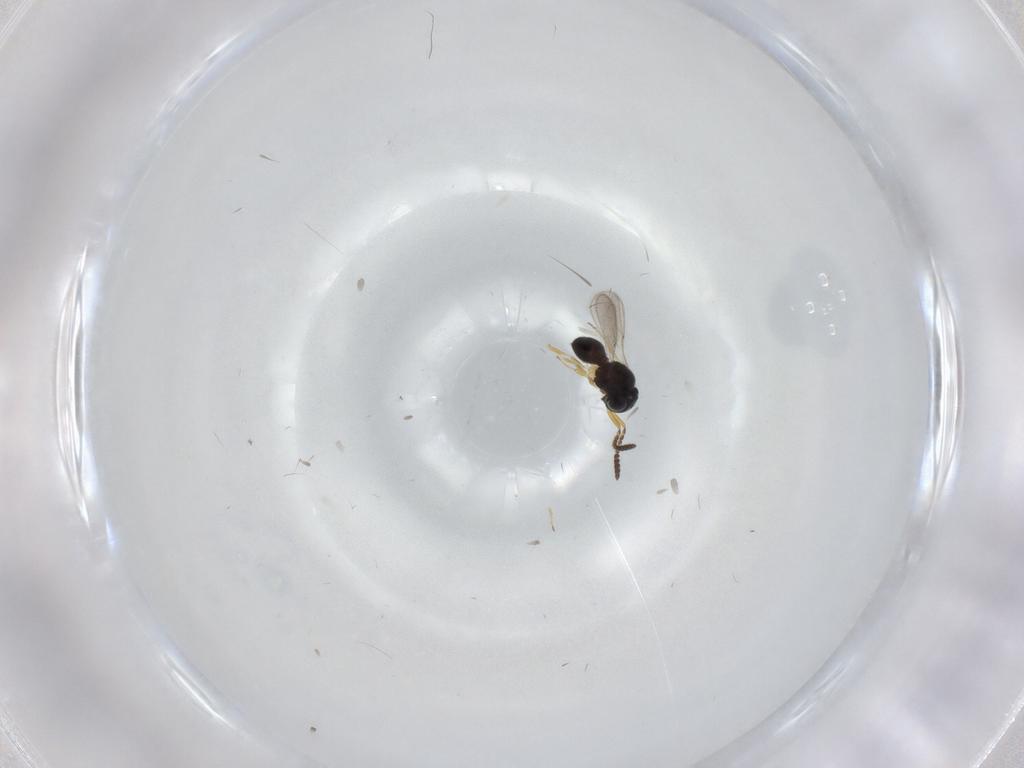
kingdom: Animalia
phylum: Arthropoda
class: Insecta
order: Hymenoptera
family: Scelionidae
